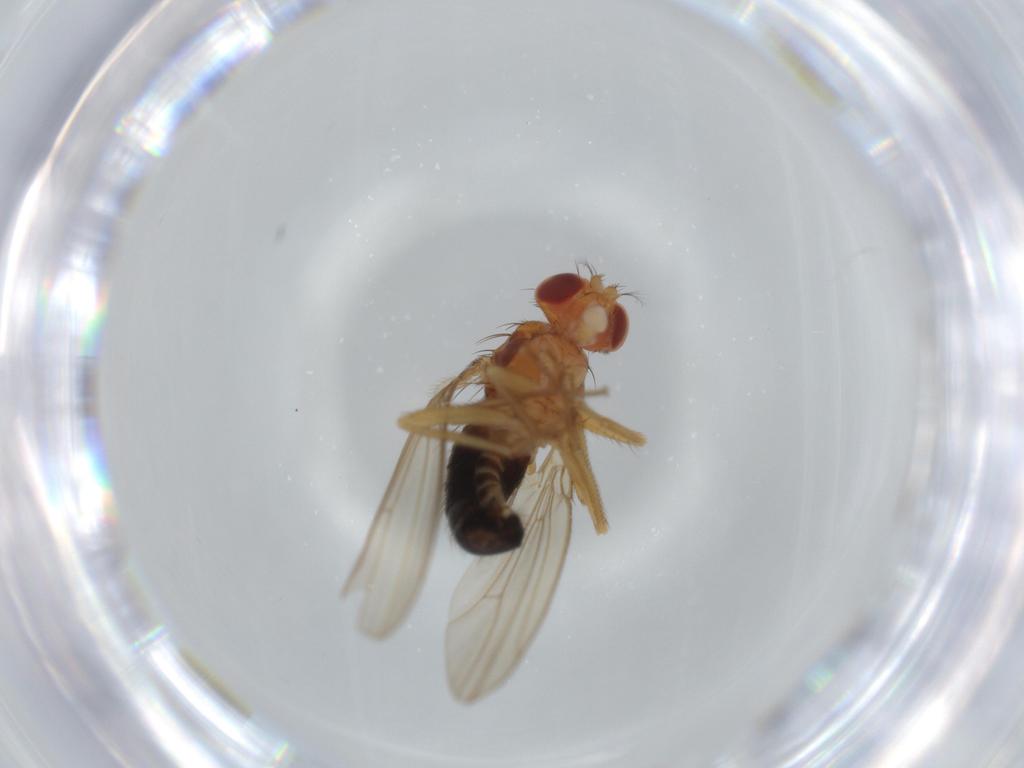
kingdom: Animalia
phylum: Arthropoda
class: Insecta
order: Diptera
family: Drosophilidae
